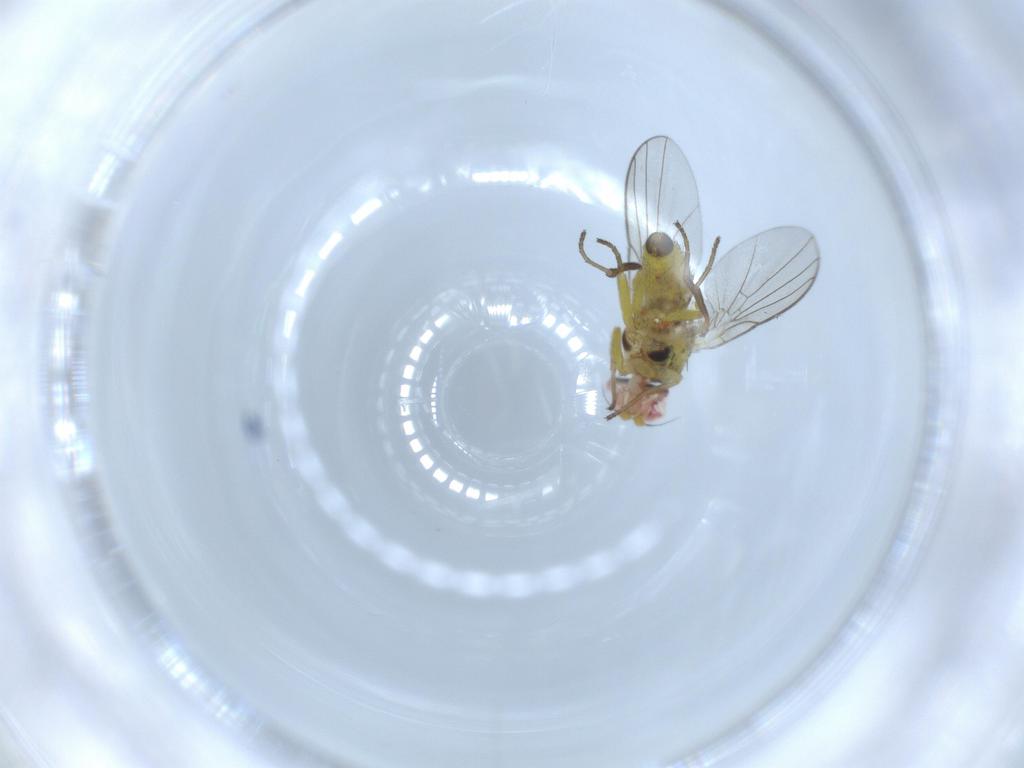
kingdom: Animalia
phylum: Arthropoda
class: Insecta
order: Diptera
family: Agromyzidae
